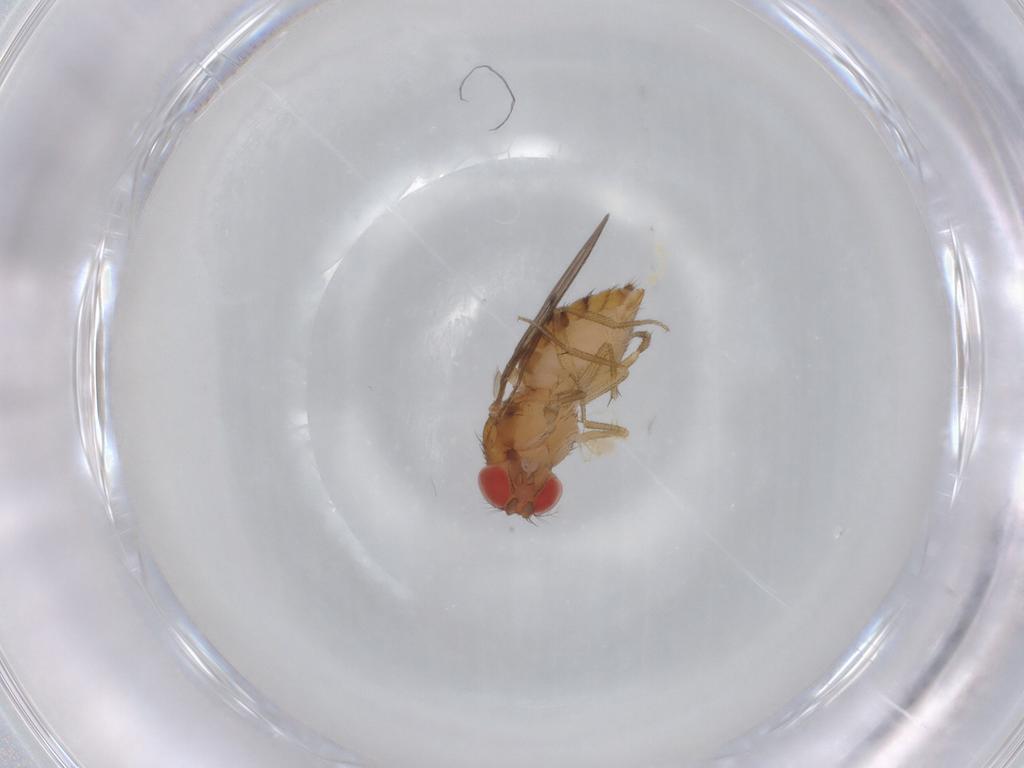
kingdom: Animalia
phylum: Arthropoda
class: Insecta
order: Diptera
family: Drosophilidae
